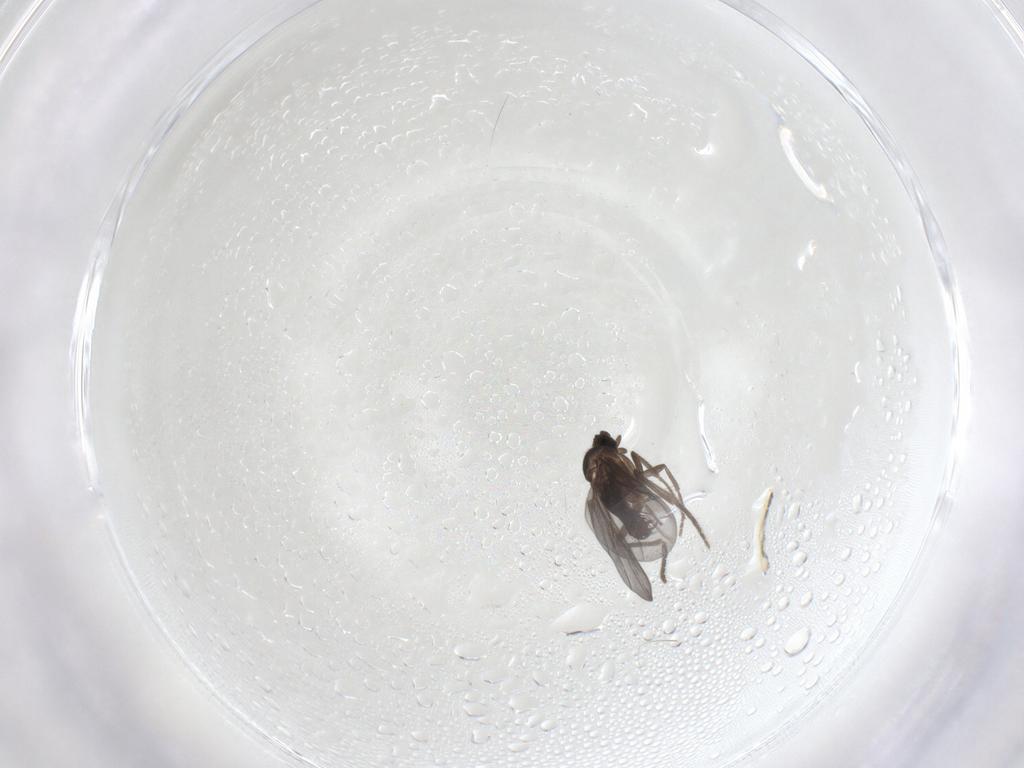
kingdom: Animalia
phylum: Arthropoda
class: Insecta
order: Diptera
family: Phoridae
